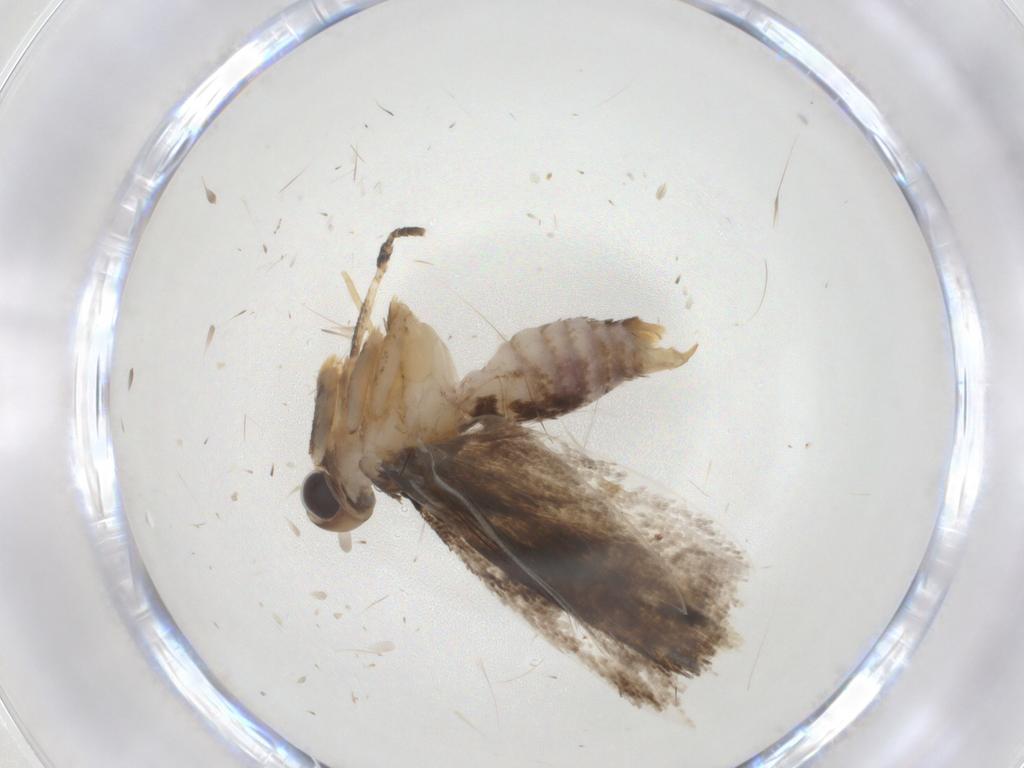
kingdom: Animalia
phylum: Arthropoda
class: Insecta
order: Lepidoptera
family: Gelechiidae
